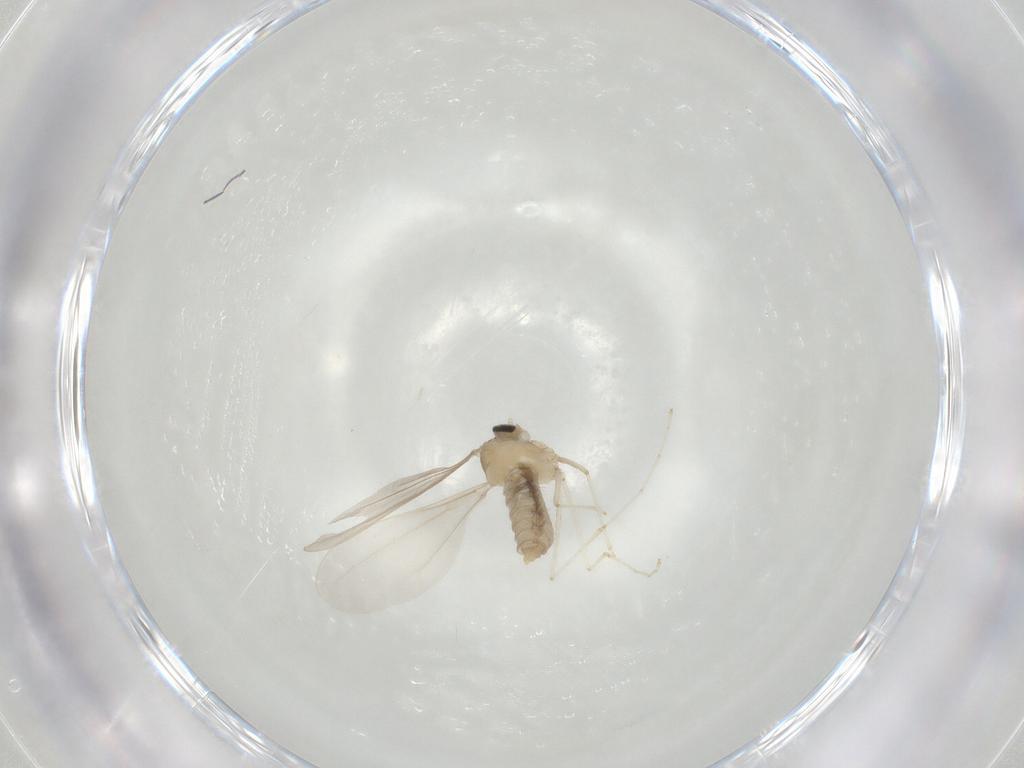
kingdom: Animalia
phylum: Arthropoda
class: Insecta
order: Diptera
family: Cecidomyiidae
